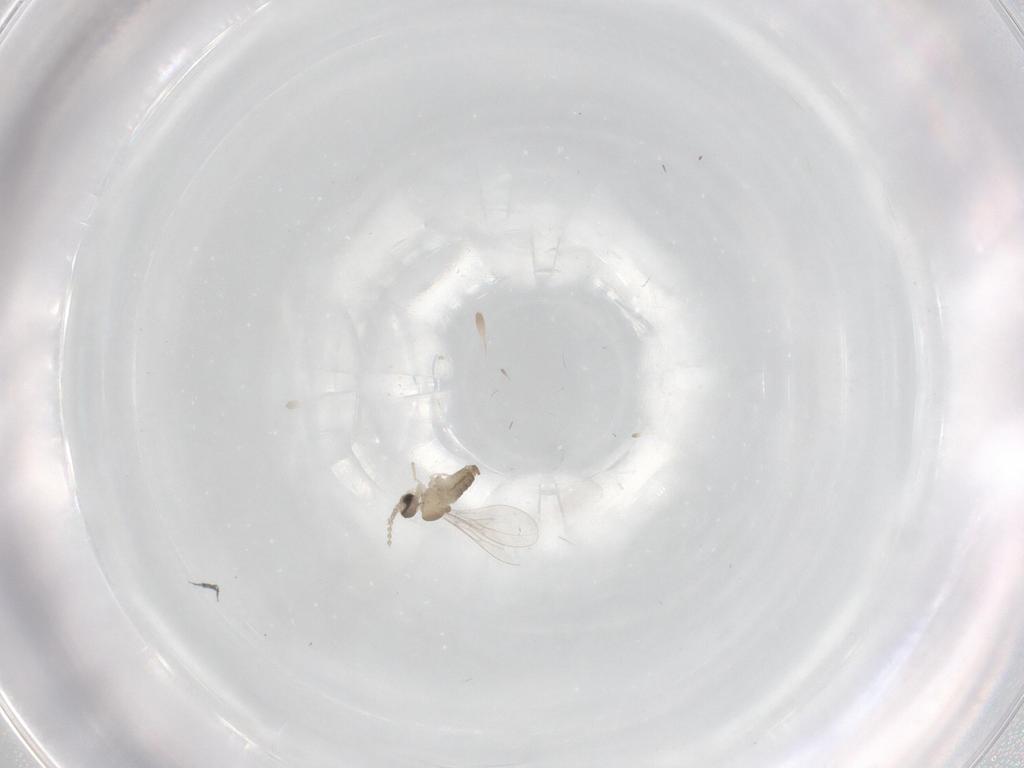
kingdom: Animalia
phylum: Arthropoda
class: Insecta
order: Diptera
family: Cecidomyiidae
